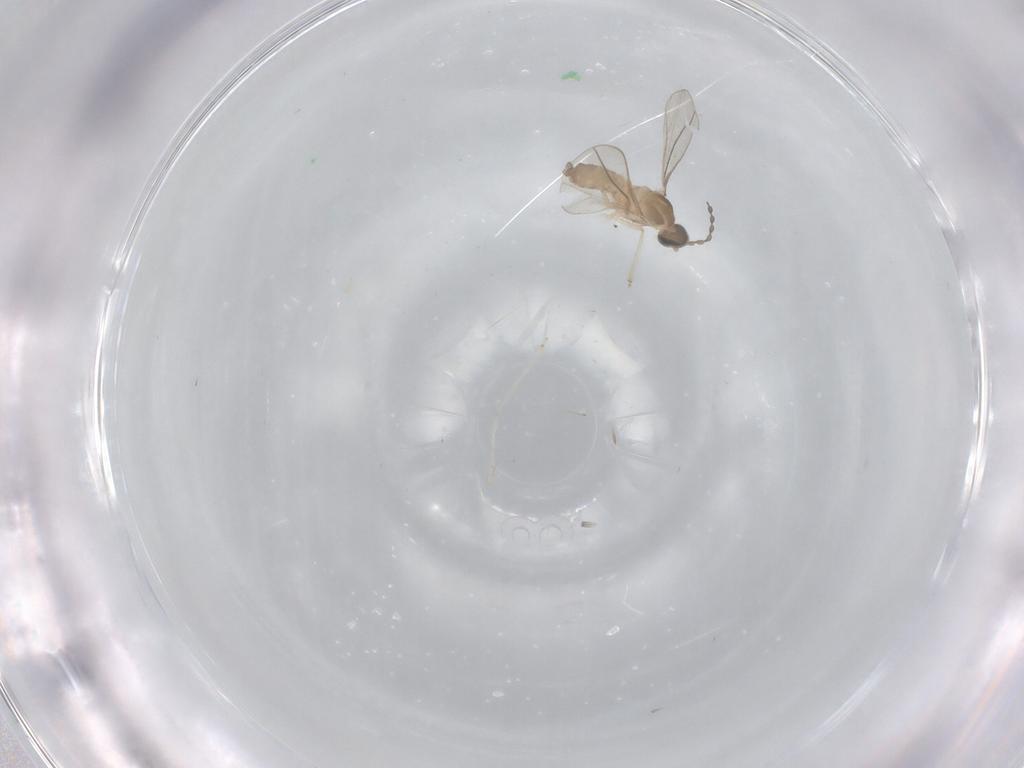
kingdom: Animalia
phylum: Arthropoda
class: Insecta
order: Diptera
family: Cecidomyiidae
